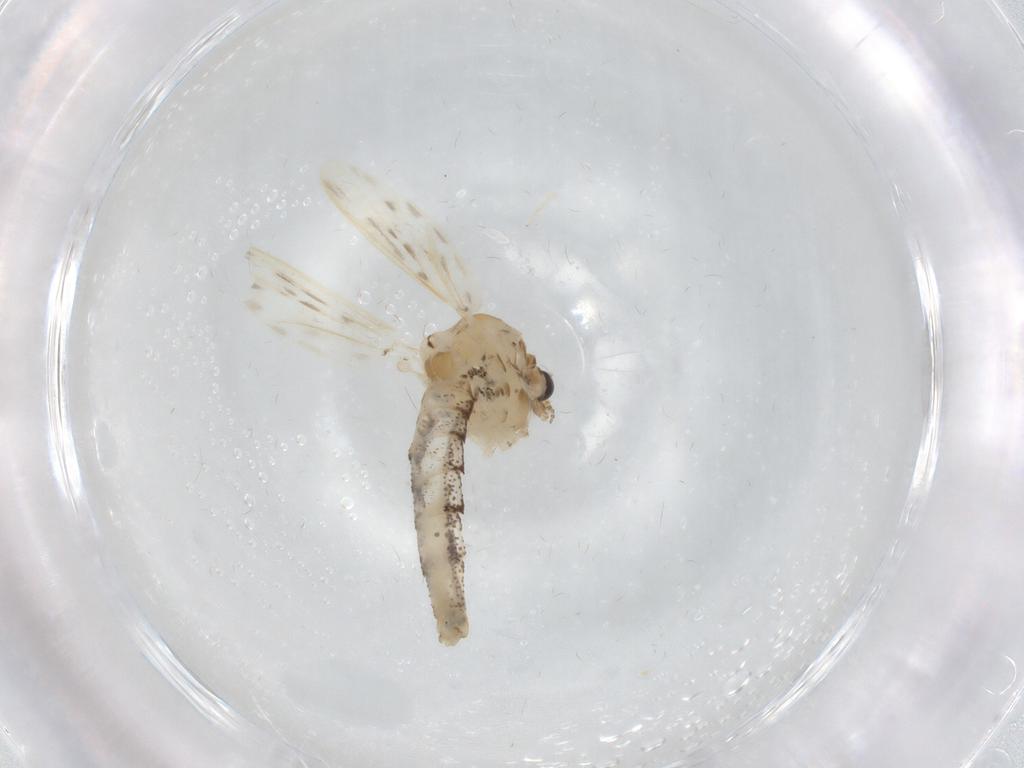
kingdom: Animalia
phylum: Arthropoda
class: Insecta
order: Diptera
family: Chaoboridae
